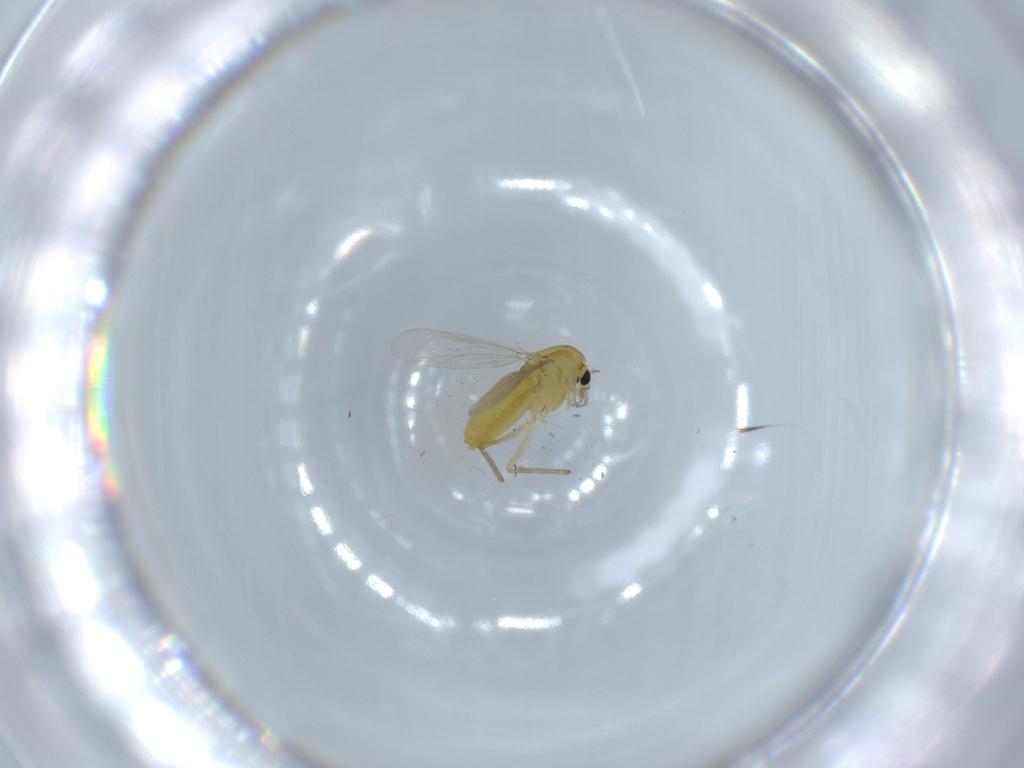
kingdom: Animalia
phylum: Arthropoda
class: Insecta
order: Diptera
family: Chironomidae
